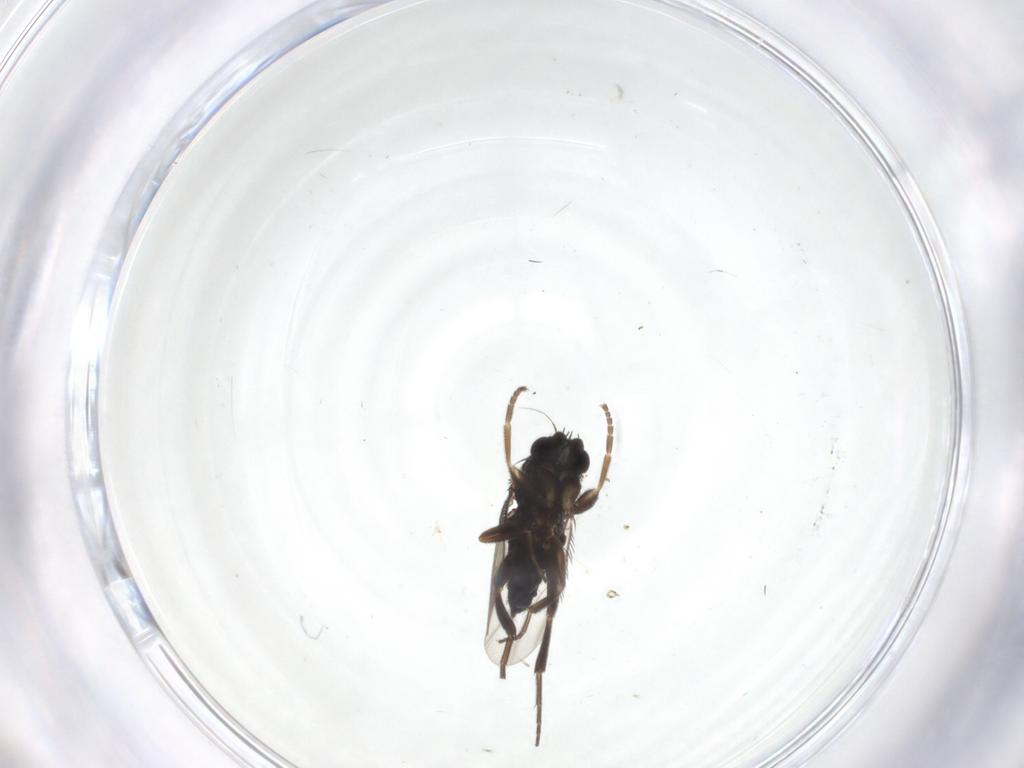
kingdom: Animalia
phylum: Arthropoda
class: Insecta
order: Diptera
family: Phoridae
